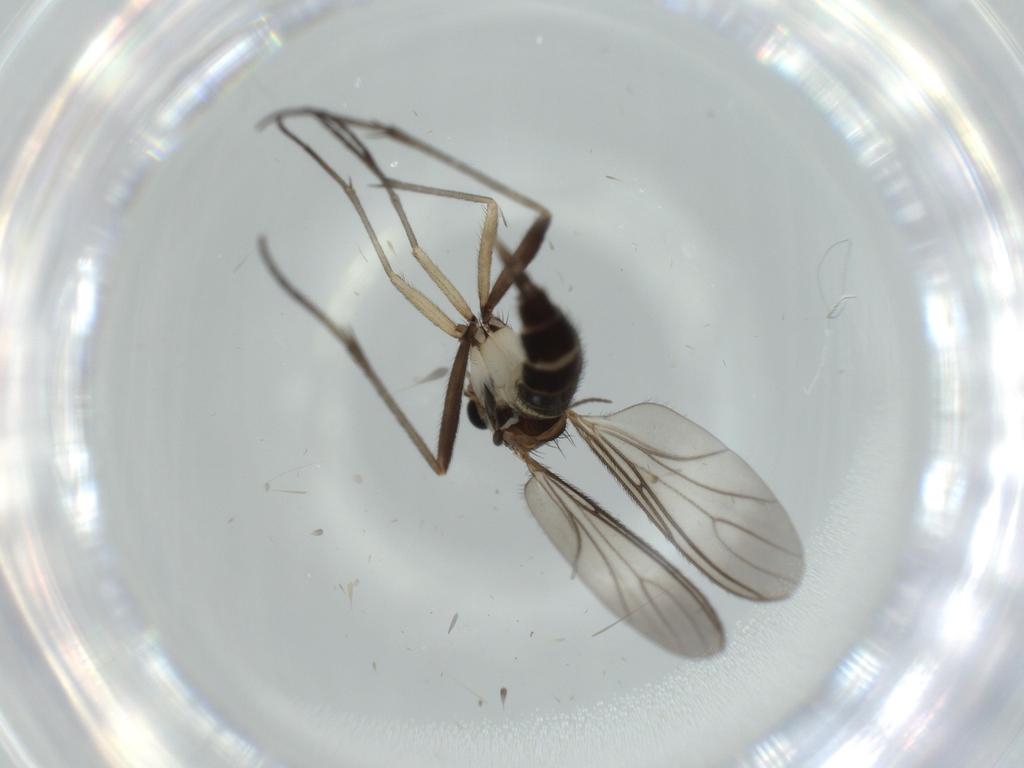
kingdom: Animalia
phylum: Arthropoda
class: Insecta
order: Diptera
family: Sciaridae
